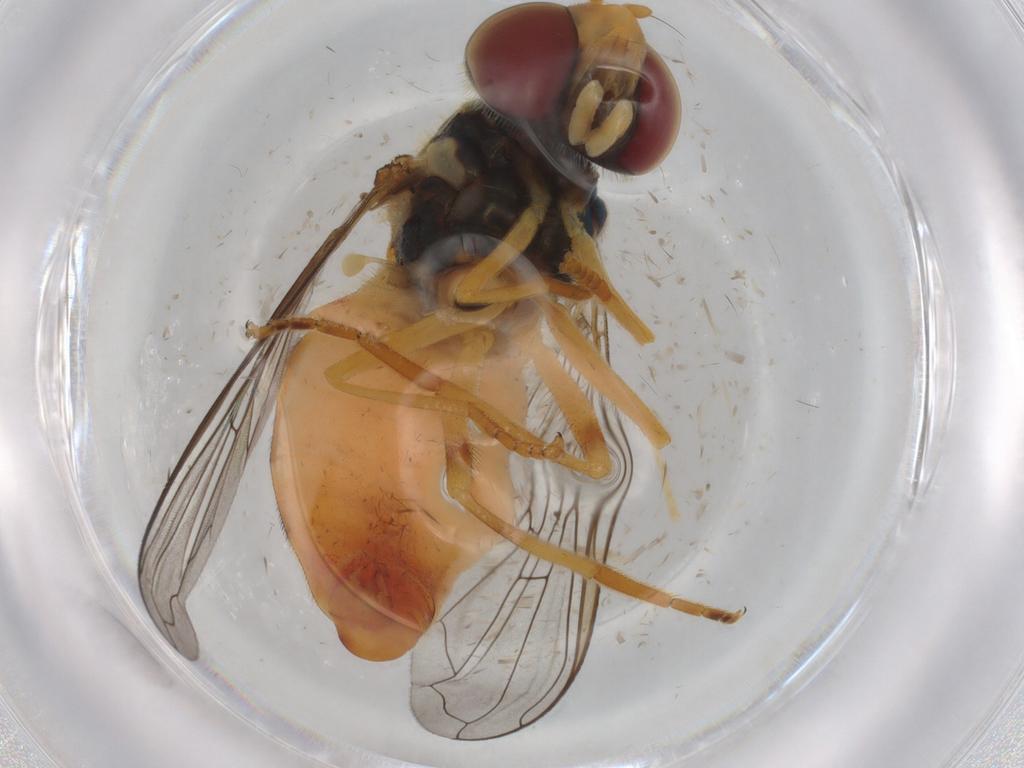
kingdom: Animalia
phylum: Arthropoda
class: Insecta
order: Diptera
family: Syrphidae
